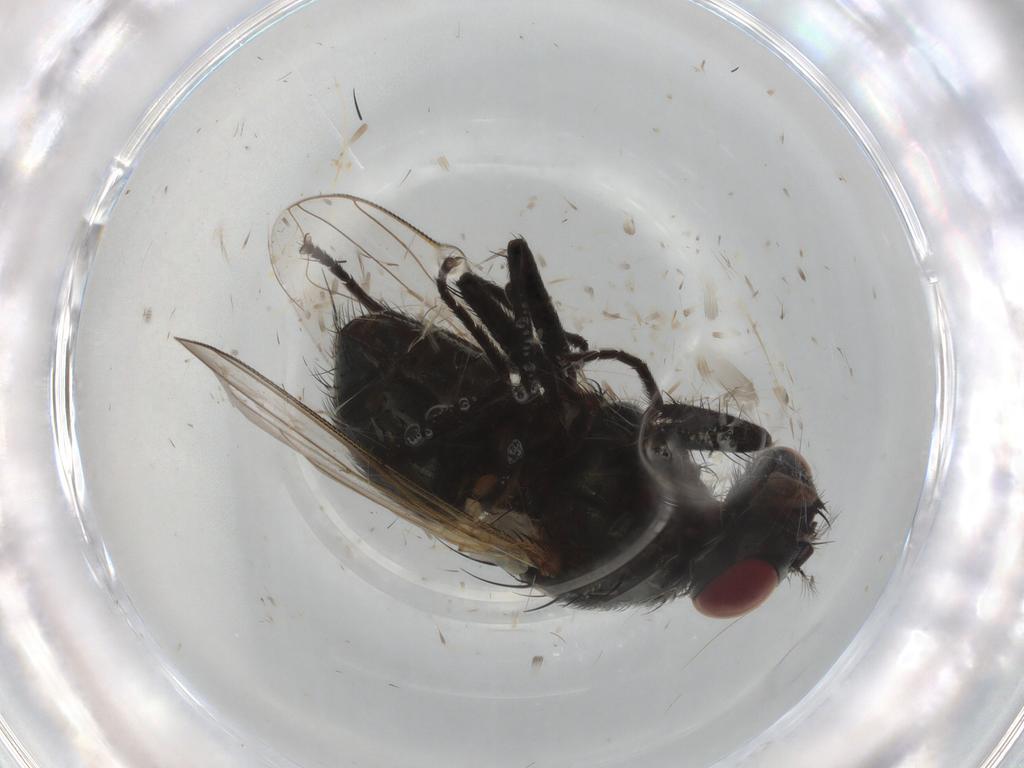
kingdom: Animalia
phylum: Arthropoda
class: Insecta
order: Diptera
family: Glossinidae
